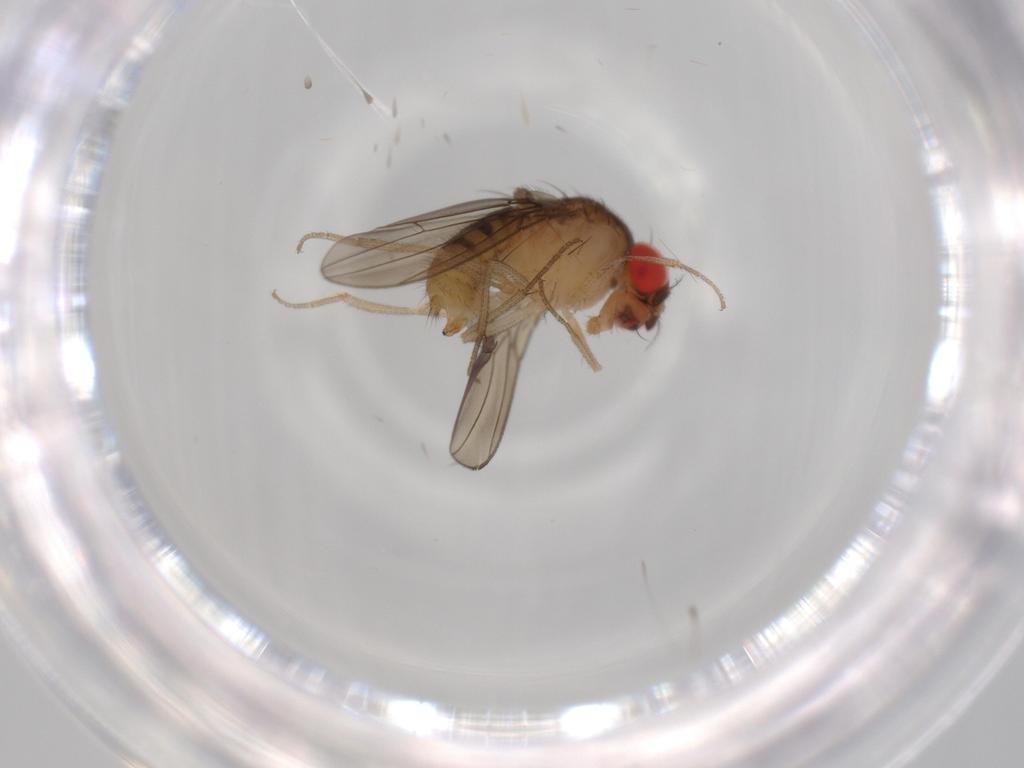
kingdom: Animalia
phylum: Arthropoda
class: Insecta
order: Diptera
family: Drosophilidae
